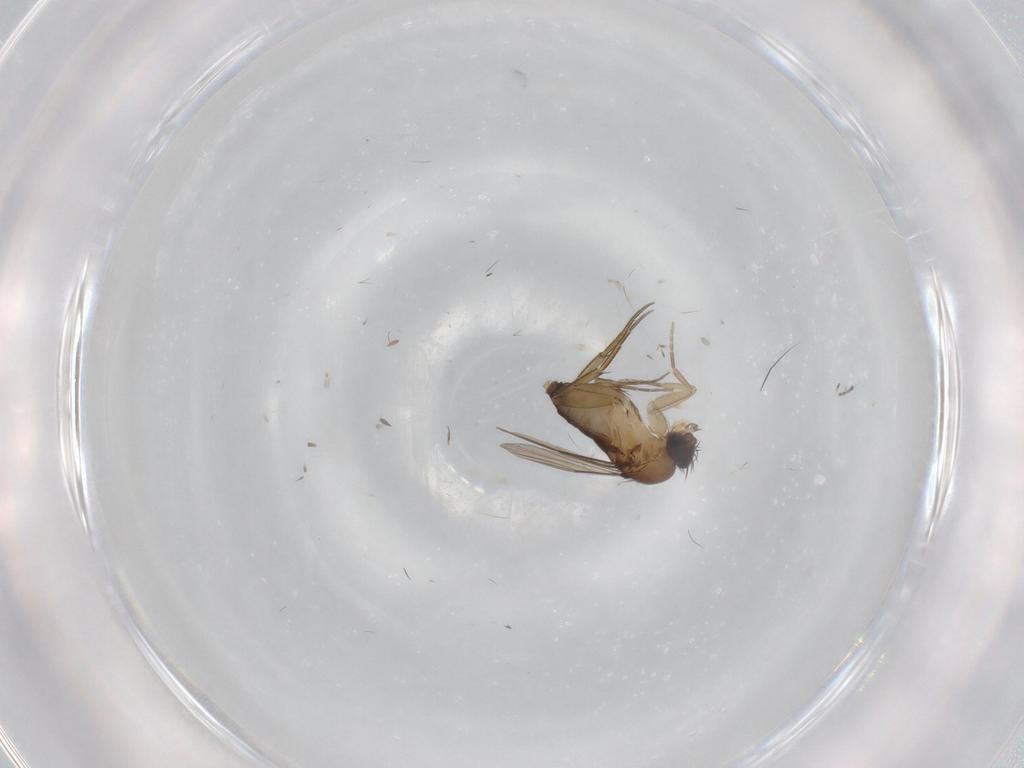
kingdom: Animalia
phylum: Arthropoda
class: Insecta
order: Diptera
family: Phoridae
